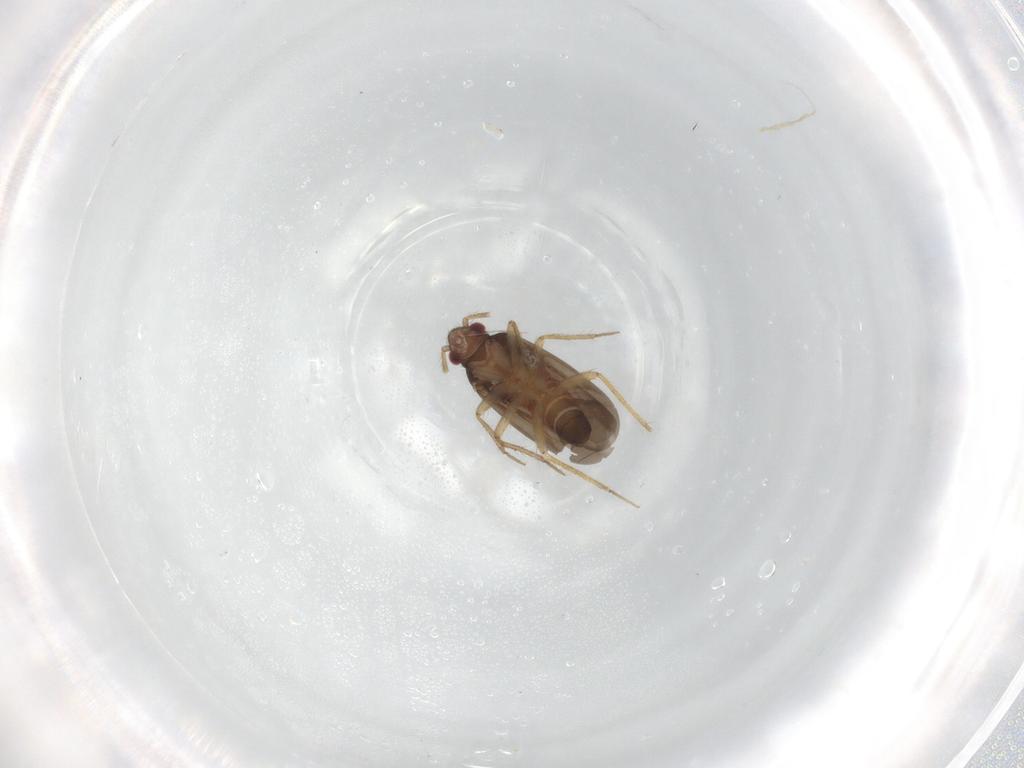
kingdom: Animalia
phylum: Arthropoda
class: Insecta
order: Hemiptera
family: Ceratocombidae
